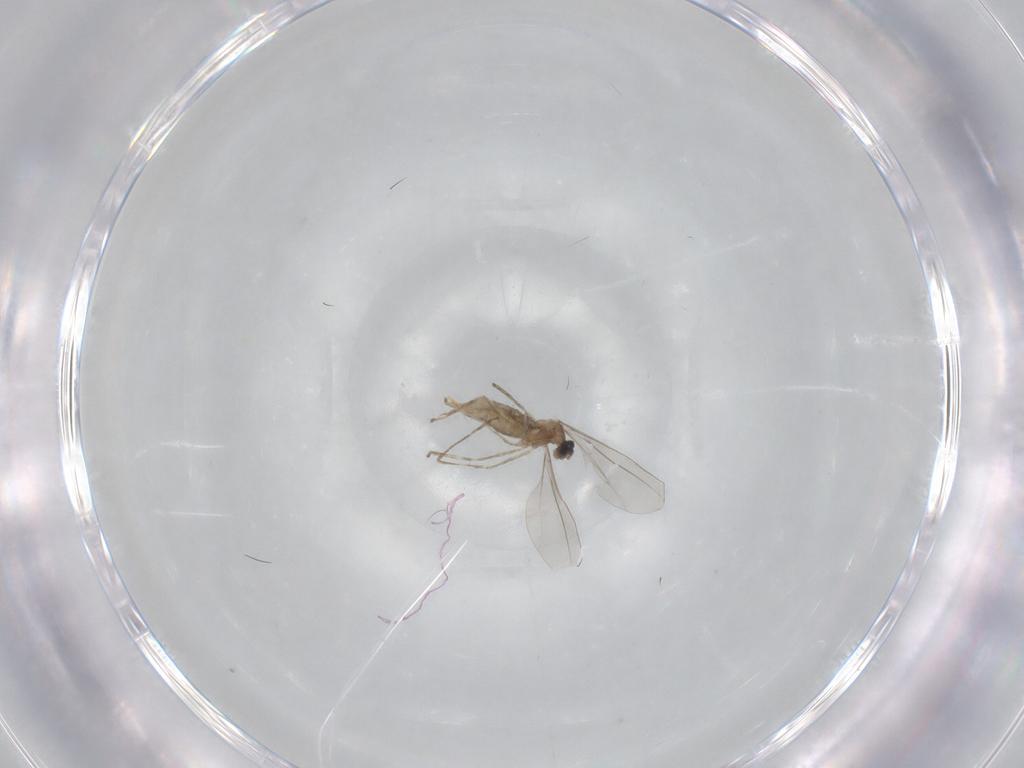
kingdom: Animalia
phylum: Arthropoda
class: Insecta
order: Diptera
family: Cecidomyiidae
